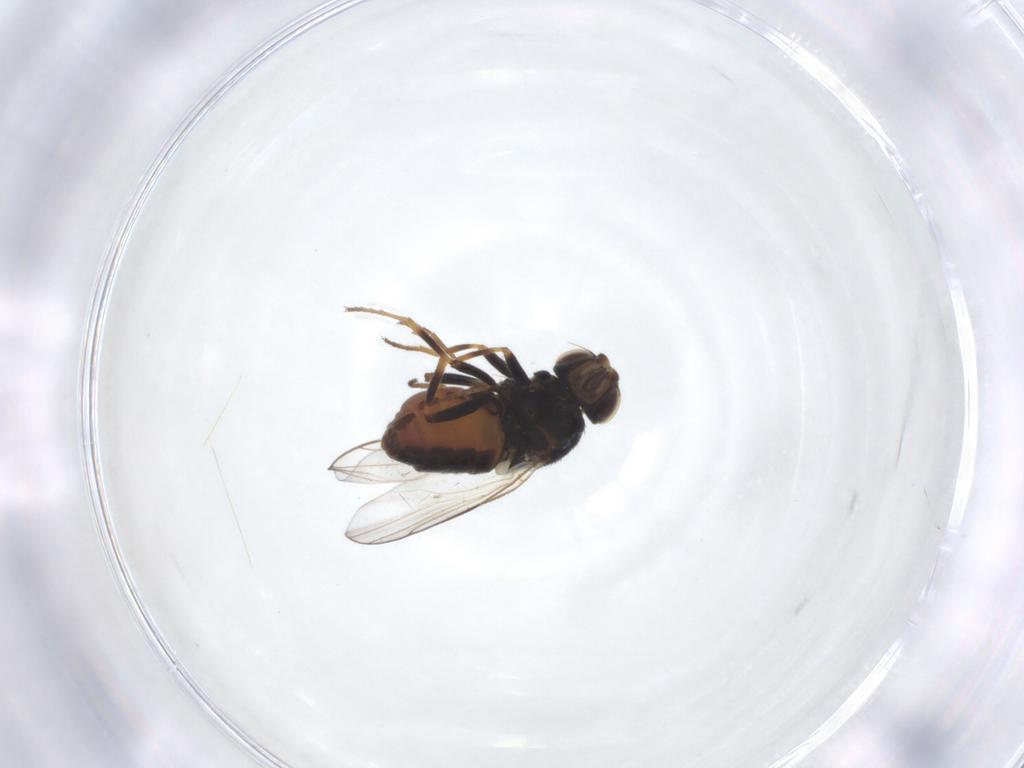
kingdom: Animalia
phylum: Arthropoda
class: Insecta
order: Diptera
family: Chloropidae
